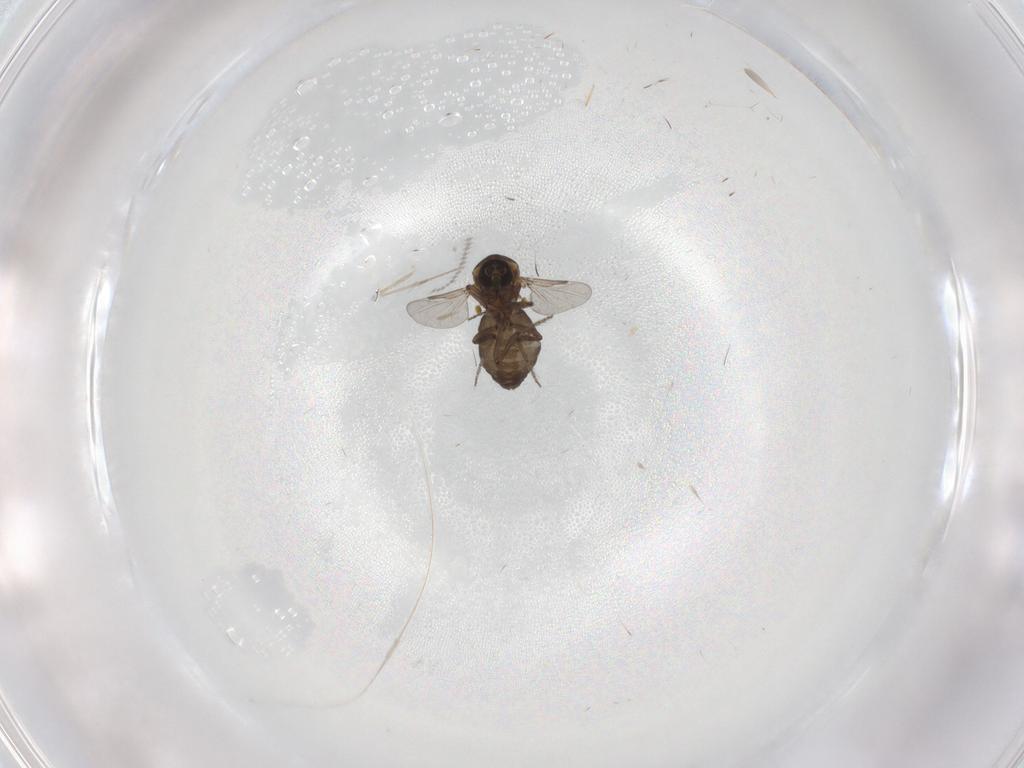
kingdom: Animalia
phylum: Arthropoda
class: Insecta
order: Diptera
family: Ceratopogonidae
